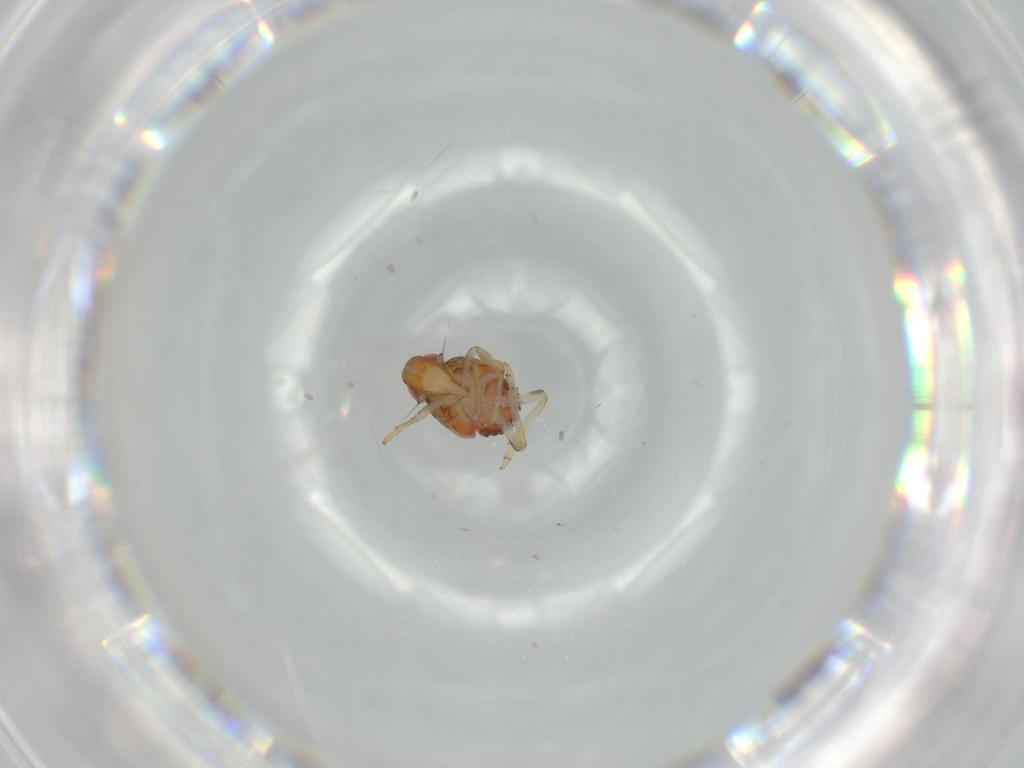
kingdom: Animalia
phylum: Arthropoda
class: Insecta
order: Hemiptera
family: Issidae
